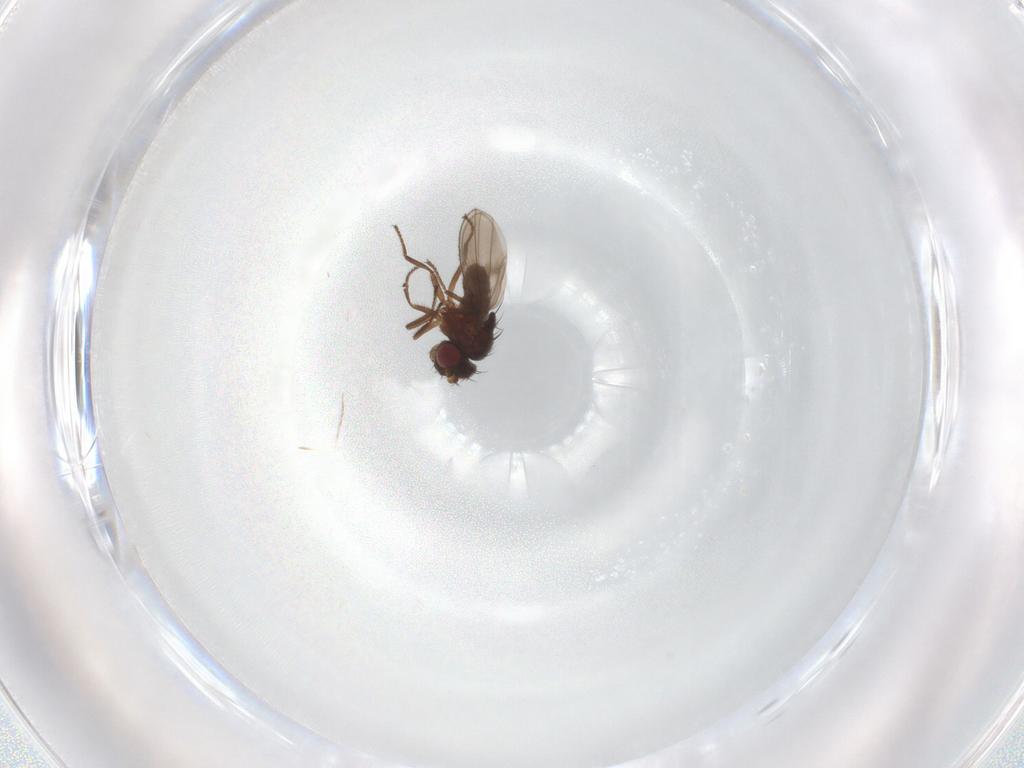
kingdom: Animalia
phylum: Arthropoda
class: Insecta
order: Diptera
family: Ephydridae
